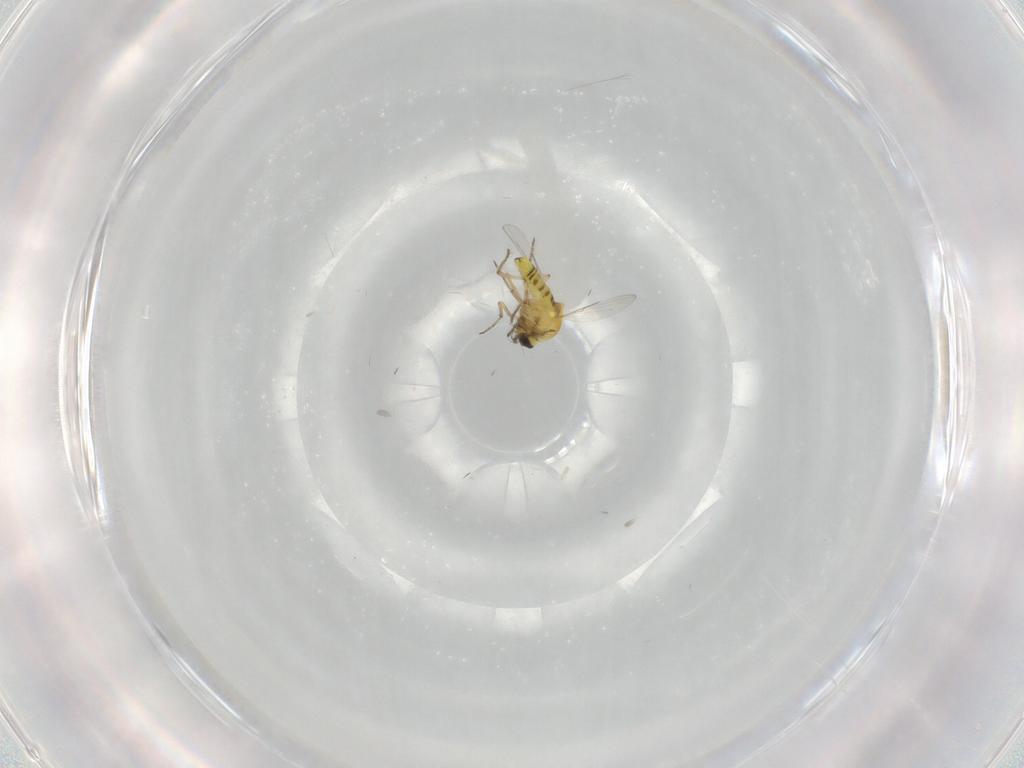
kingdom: Animalia
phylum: Arthropoda
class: Insecta
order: Diptera
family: Ceratopogonidae
